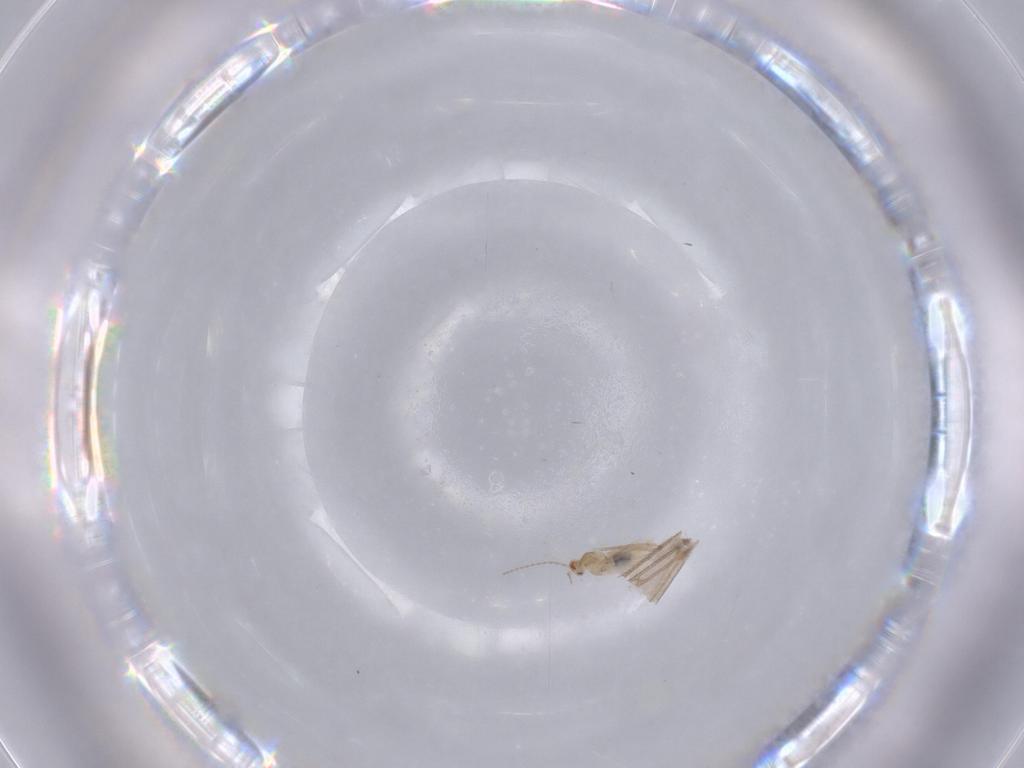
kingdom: Animalia
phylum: Arthropoda
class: Insecta
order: Diptera
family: Cecidomyiidae
